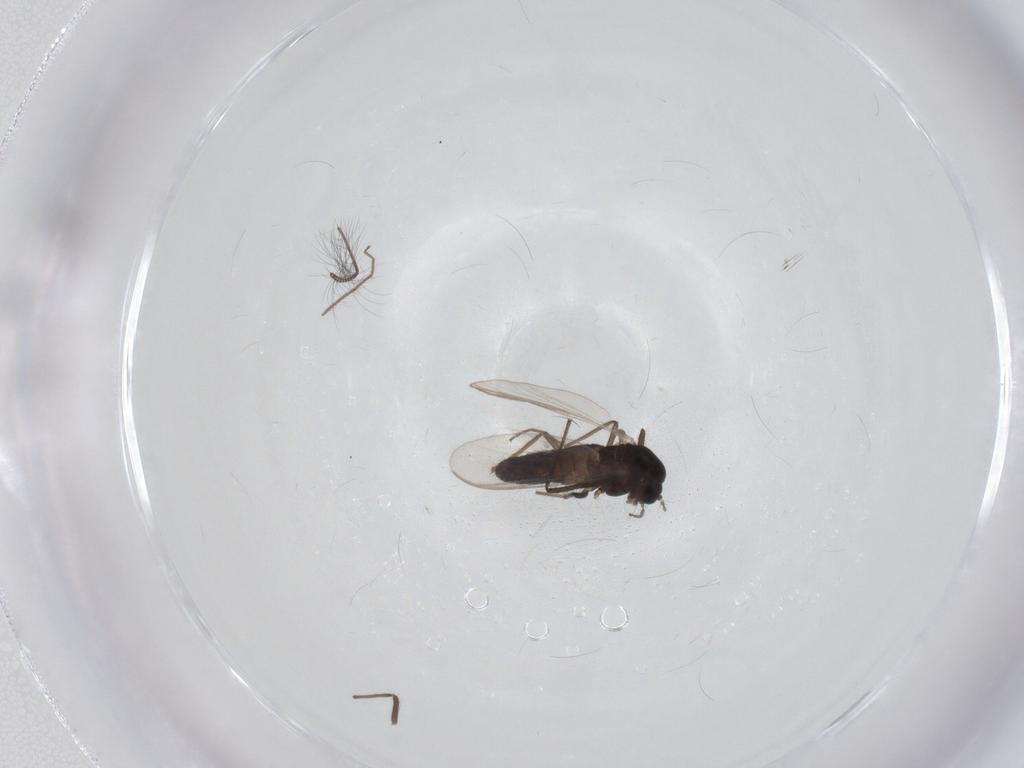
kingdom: Animalia
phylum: Arthropoda
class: Insecta
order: Diptera
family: Chironomidae
